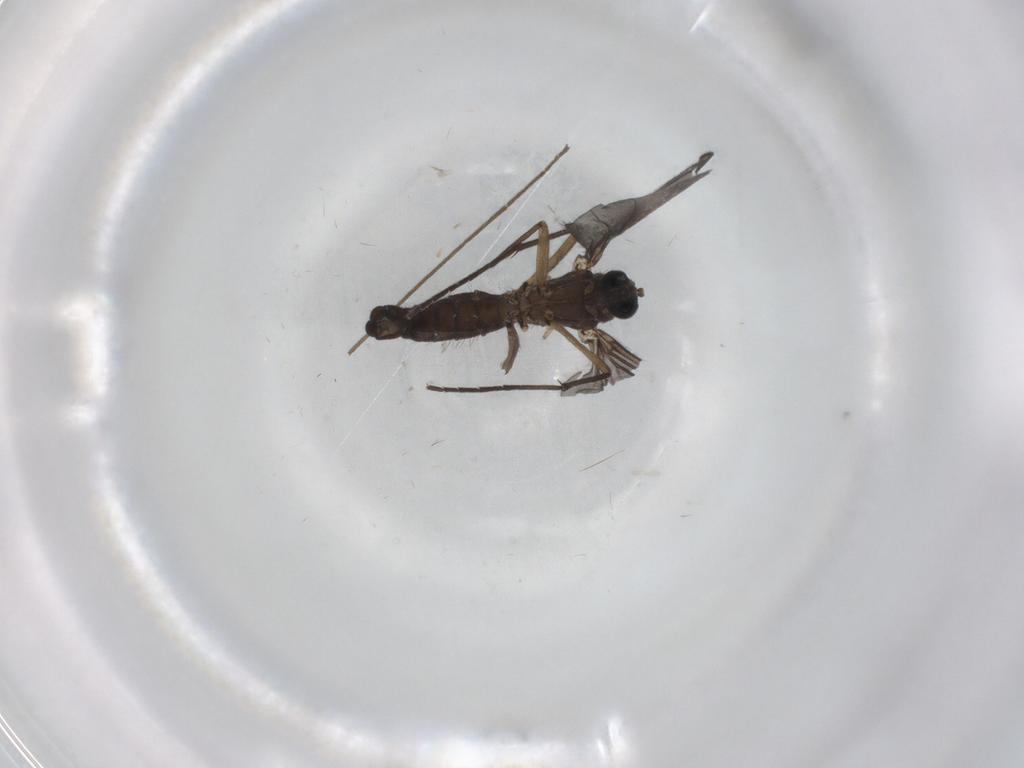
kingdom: Animalia
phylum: Arthropoda
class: Insecta
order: Diptera
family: Sciaridae
